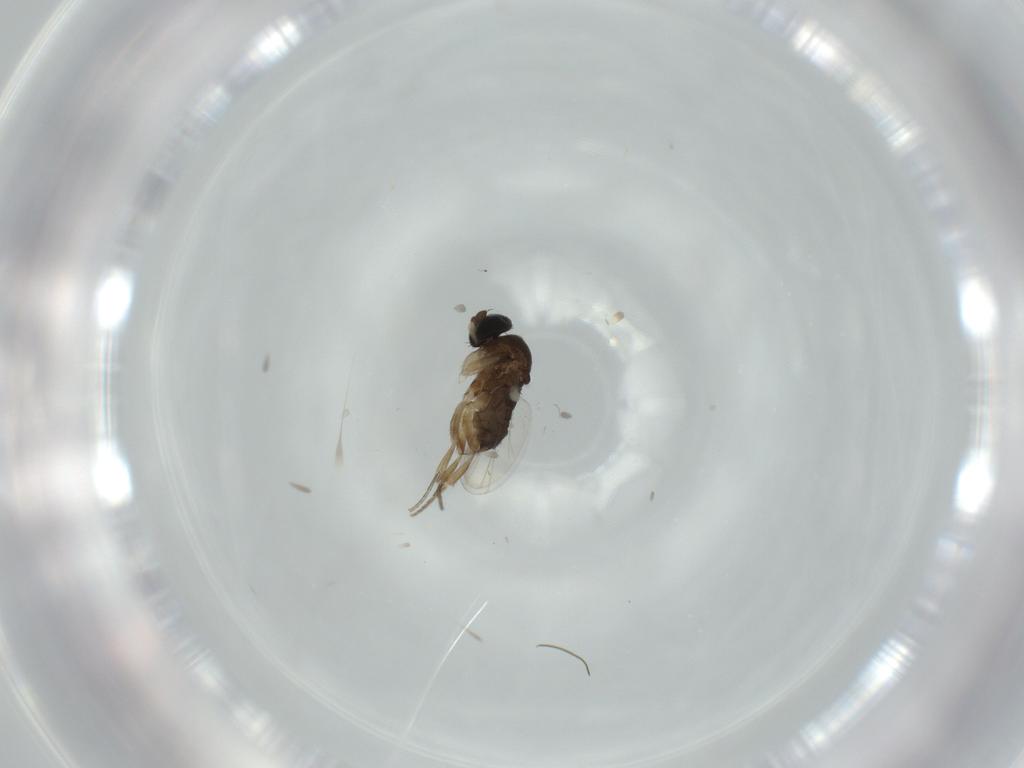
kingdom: Animalia
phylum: Arthropoda
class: Insecta
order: Diptera
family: Phoridae
